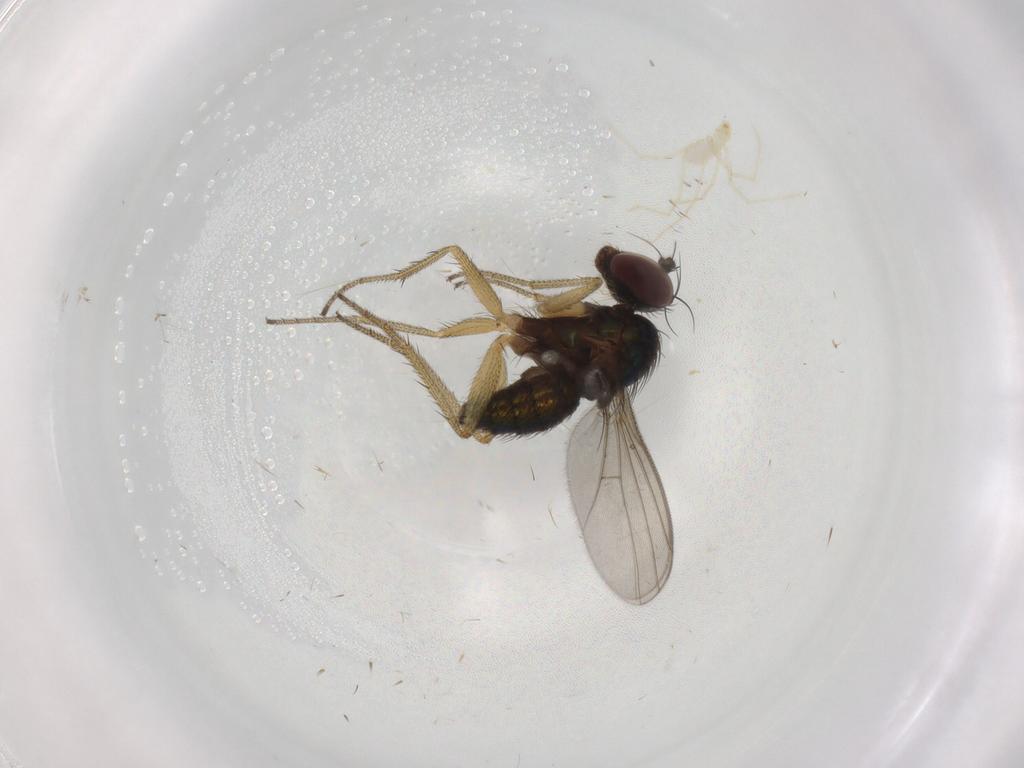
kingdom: Animalia
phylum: Arthropoda
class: Insecta
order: Diptera
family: Dolichopodidae
